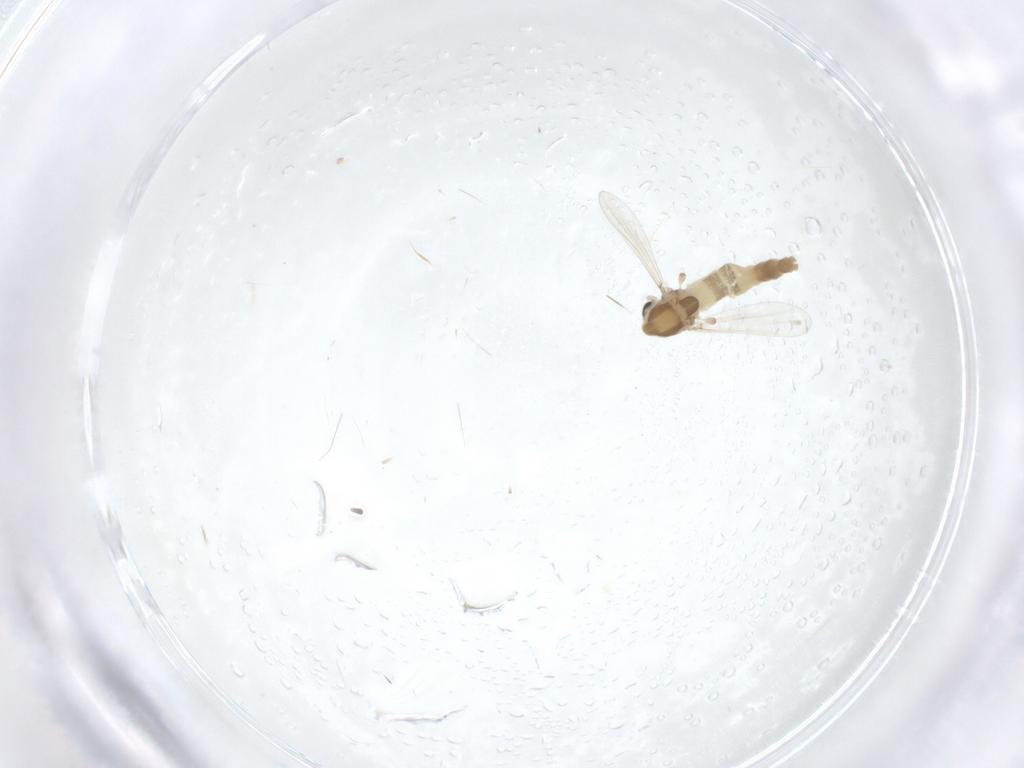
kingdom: Animalia
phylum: Arthropoda
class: Insecta
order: Diptera
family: Chironomidae
